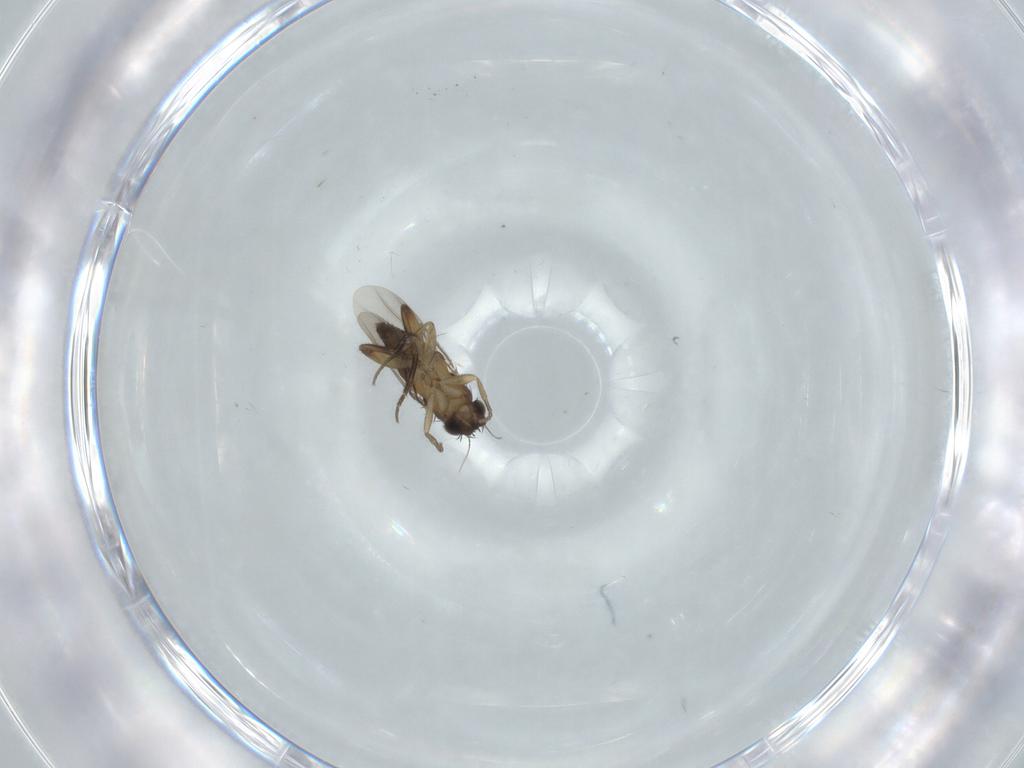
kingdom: Animalia
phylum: Arthropoda
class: Insecta
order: Diptera
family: Phoridae
